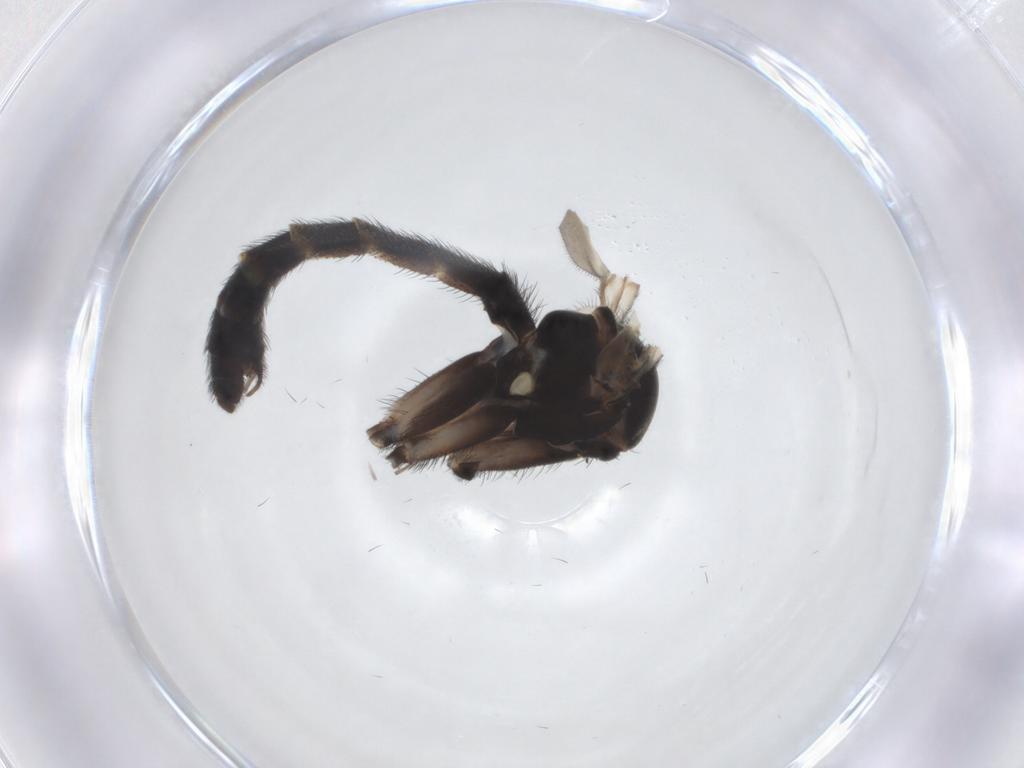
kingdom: Animalia
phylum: Arthropoda
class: Insecta
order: Diptera
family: Keroplatidae
